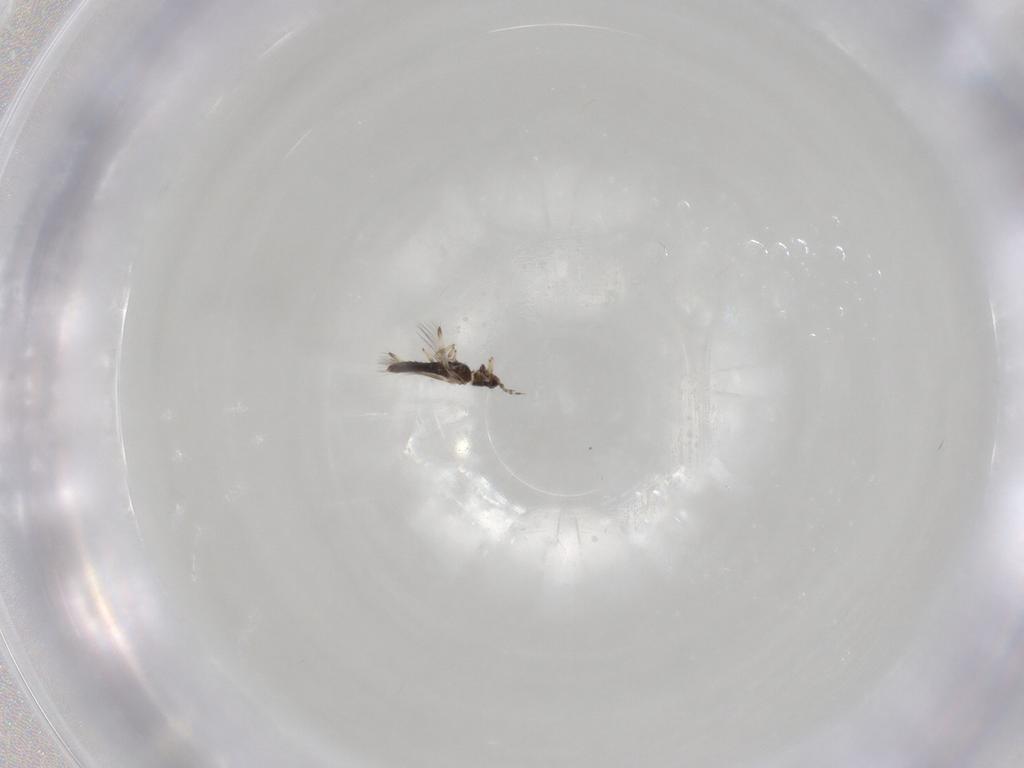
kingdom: Animalia
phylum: Arthropoda
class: Insecta
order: Thysanoptera
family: Thripidae
